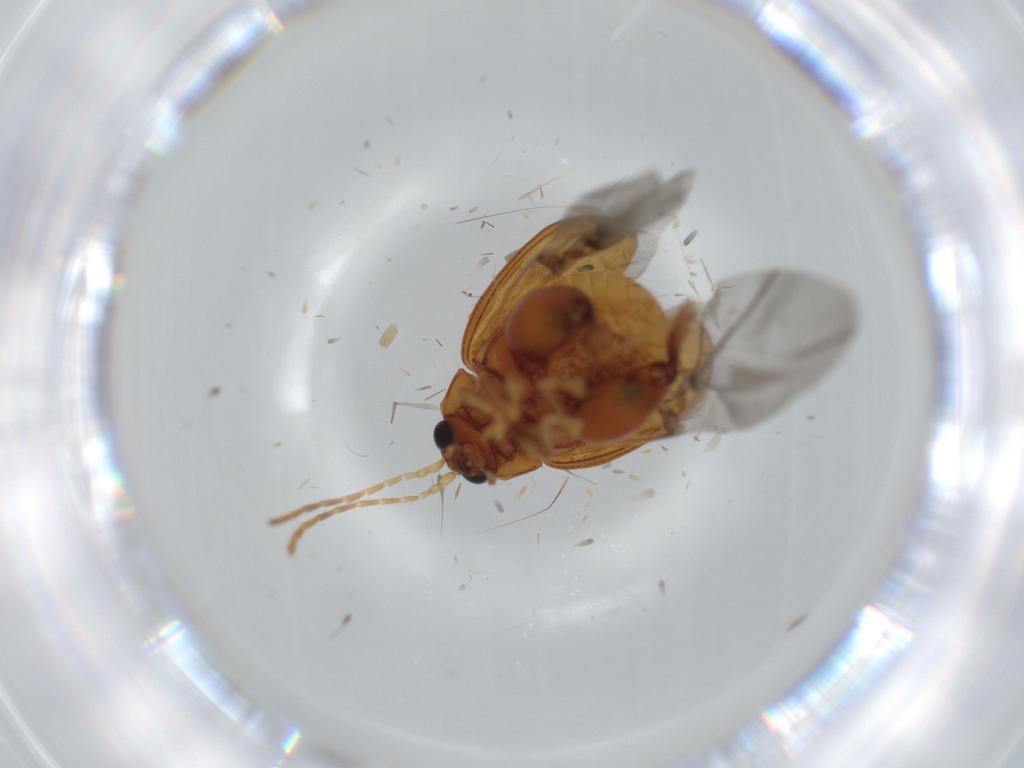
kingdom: Animalia
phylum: Arthropoda
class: Insecta
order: Coleoptera
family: Chrysomelidae
